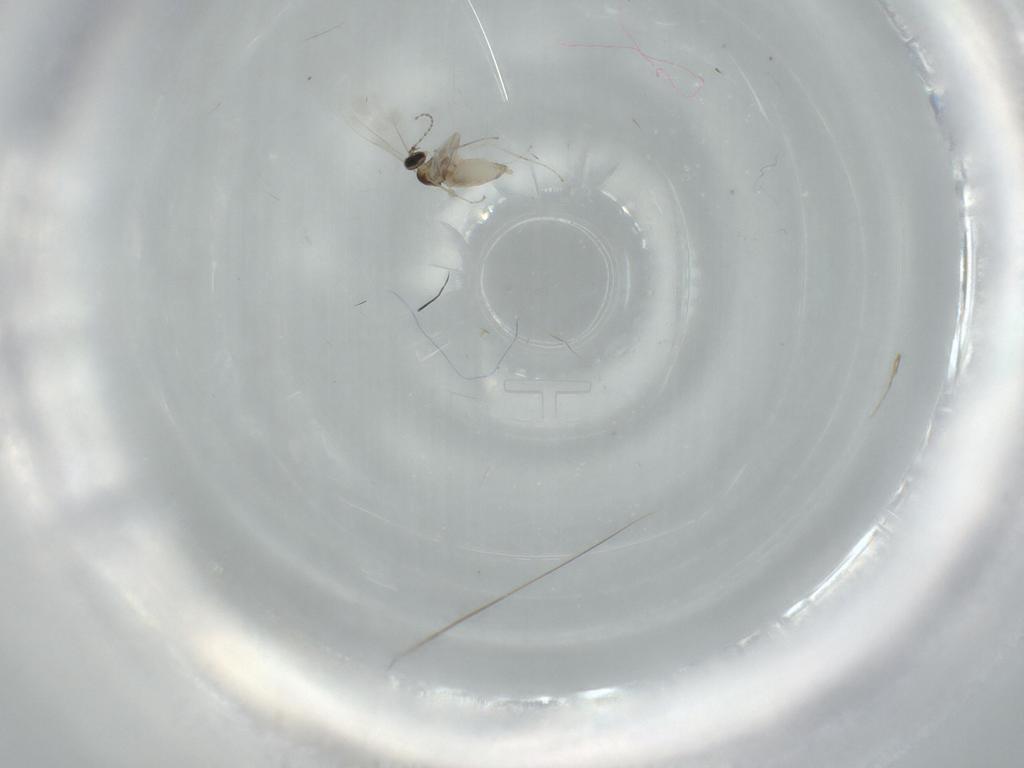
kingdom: Animalia
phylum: Arthropoda
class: Insecta
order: Diptera
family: Cecidomyiidae
